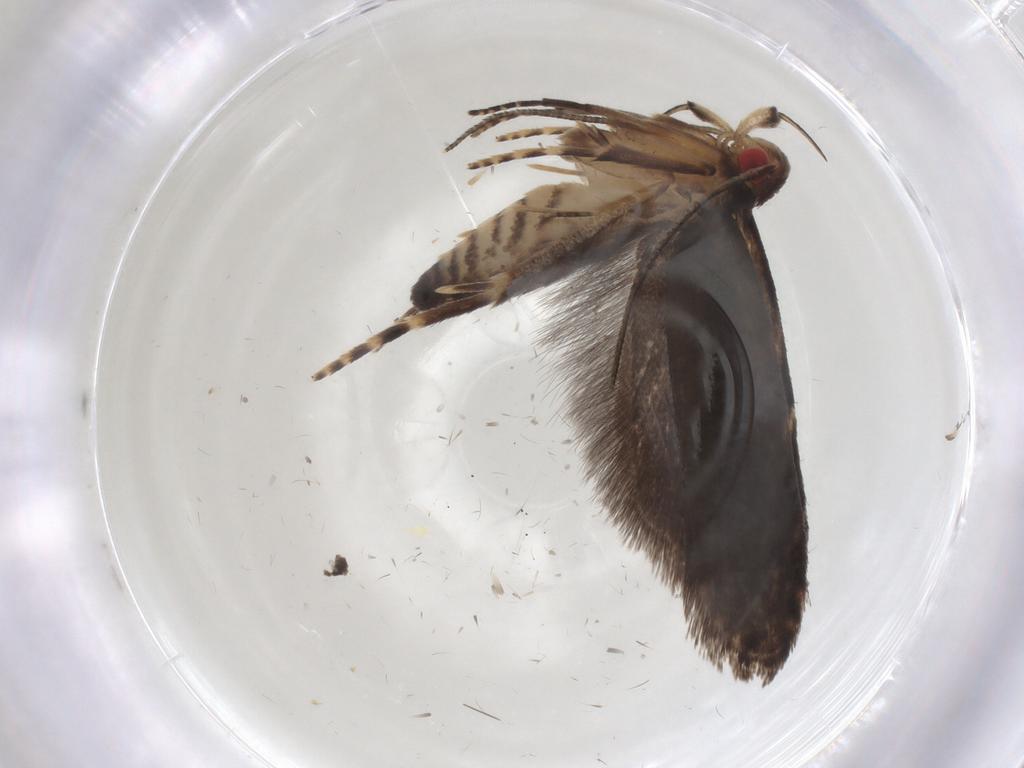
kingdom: Animalia
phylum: Arthropoda
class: Insecta
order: Lepidoptera
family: Gelechiidae
